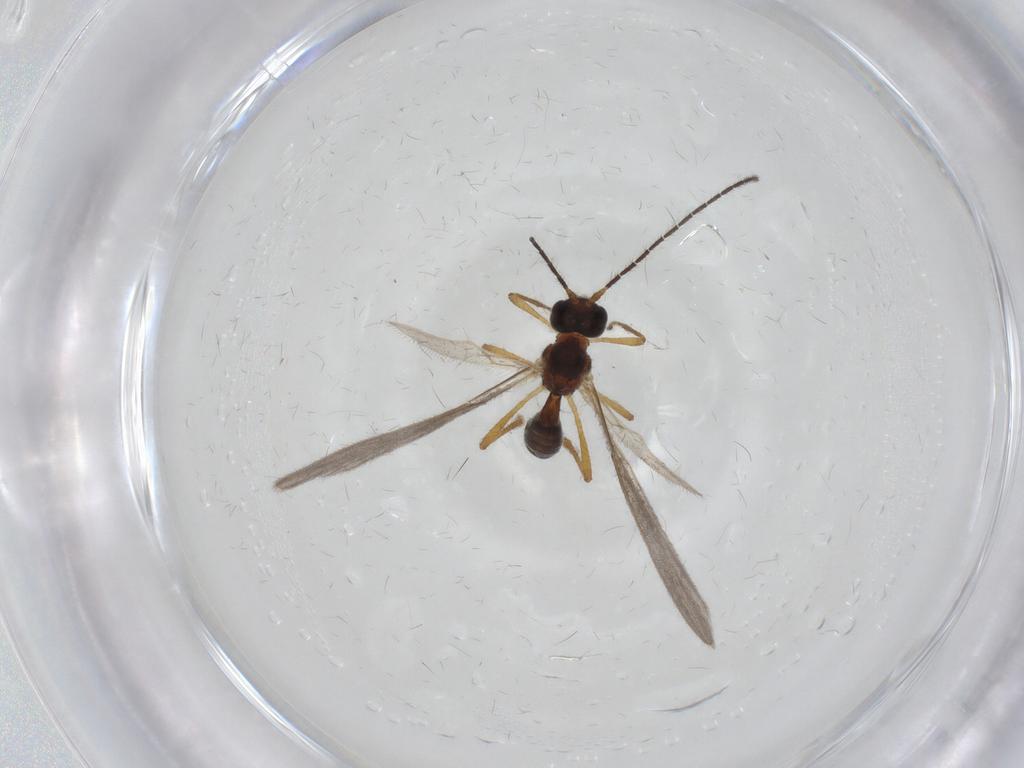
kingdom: Animalia
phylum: Arthropoda
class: Insecta
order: Hymenoptera
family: Braconidae
